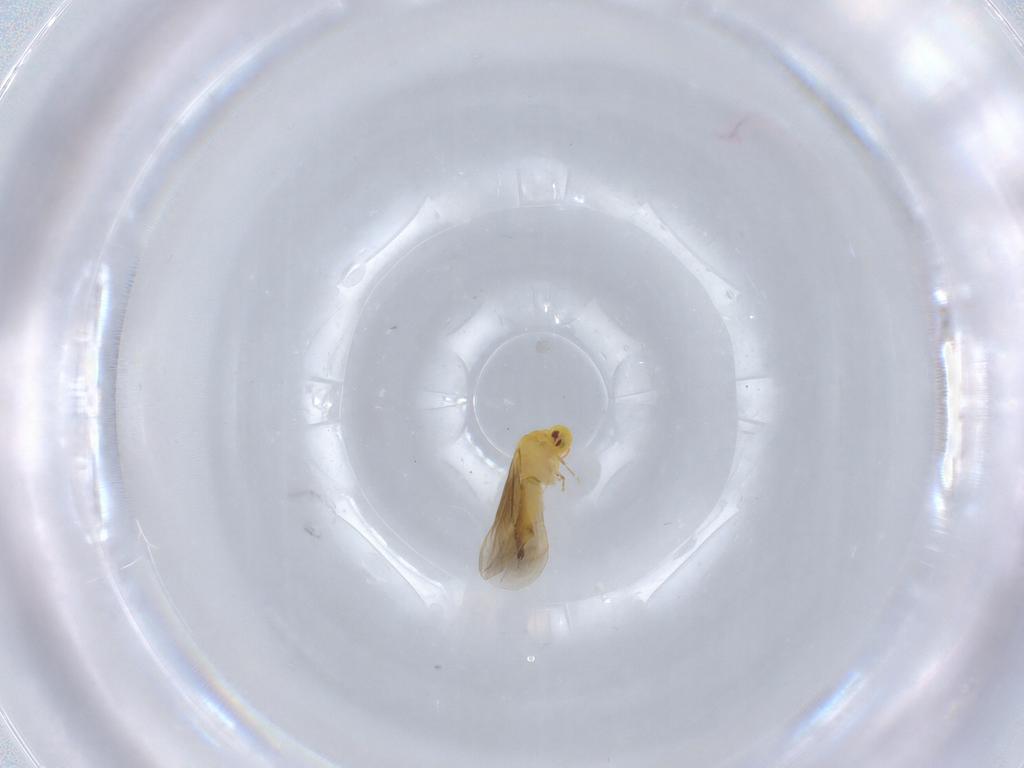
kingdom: Animalia
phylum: Arthropoda
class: Insecta
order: Hemiptera
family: Aleyrodidae
